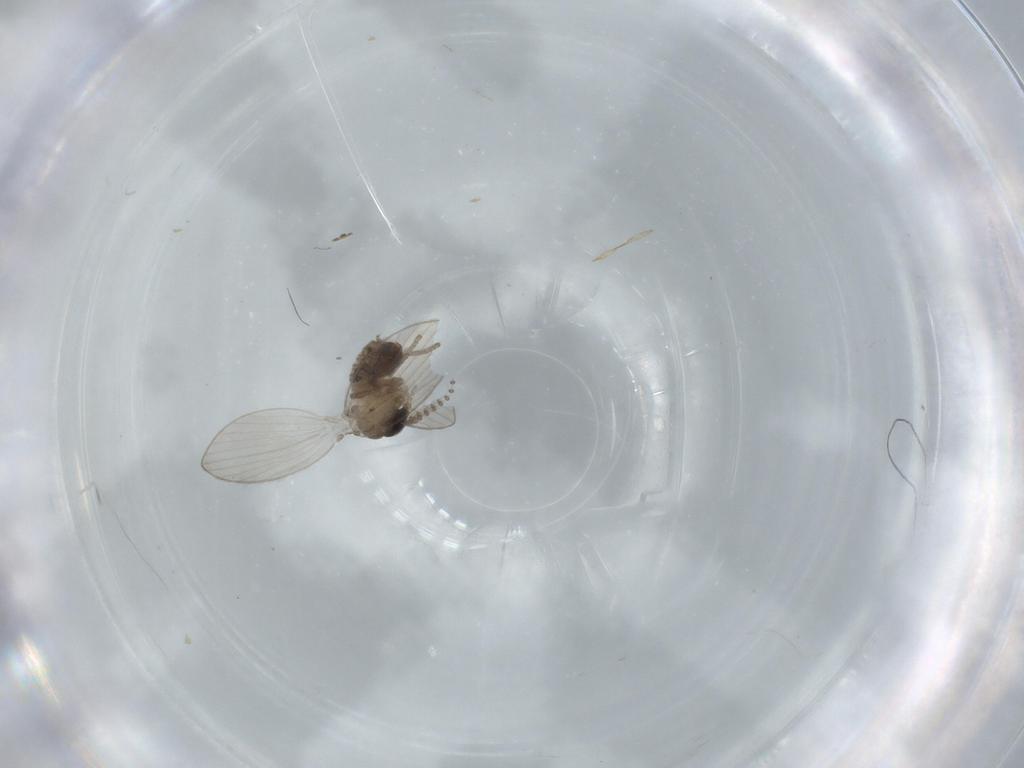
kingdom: Animalia
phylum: Arthropoda
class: Insecta
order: Diptera
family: Psychodidae
